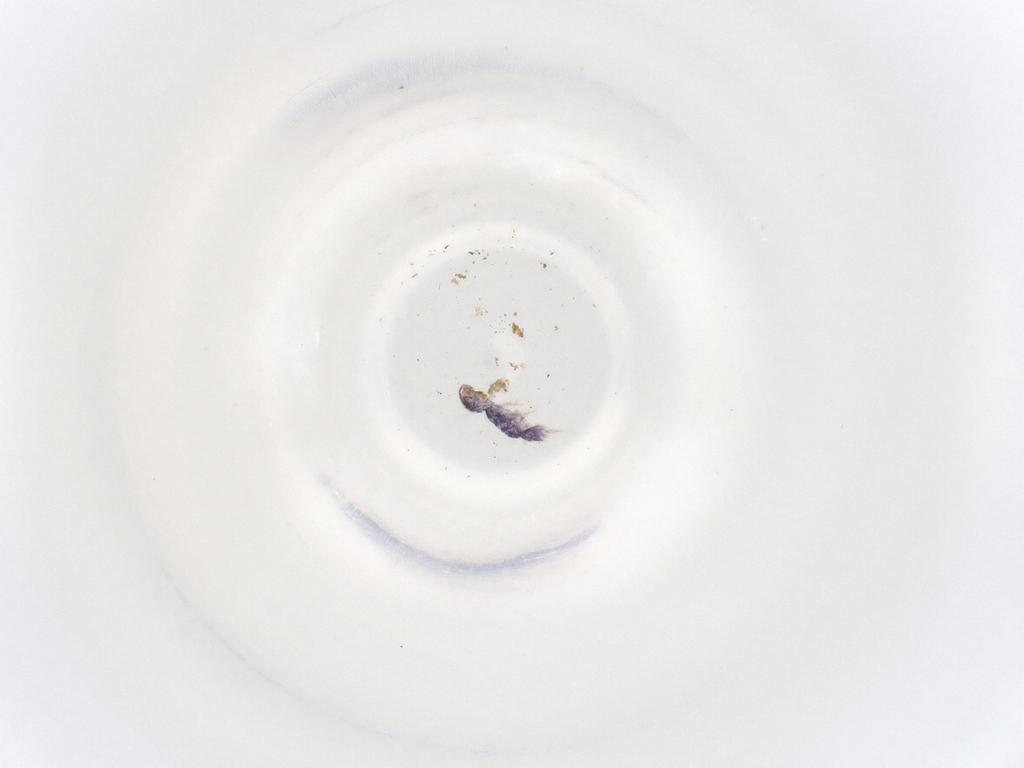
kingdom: Animalia
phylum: Arthropoda
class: Collembola
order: Entomobryomorpha
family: Isotomidae
